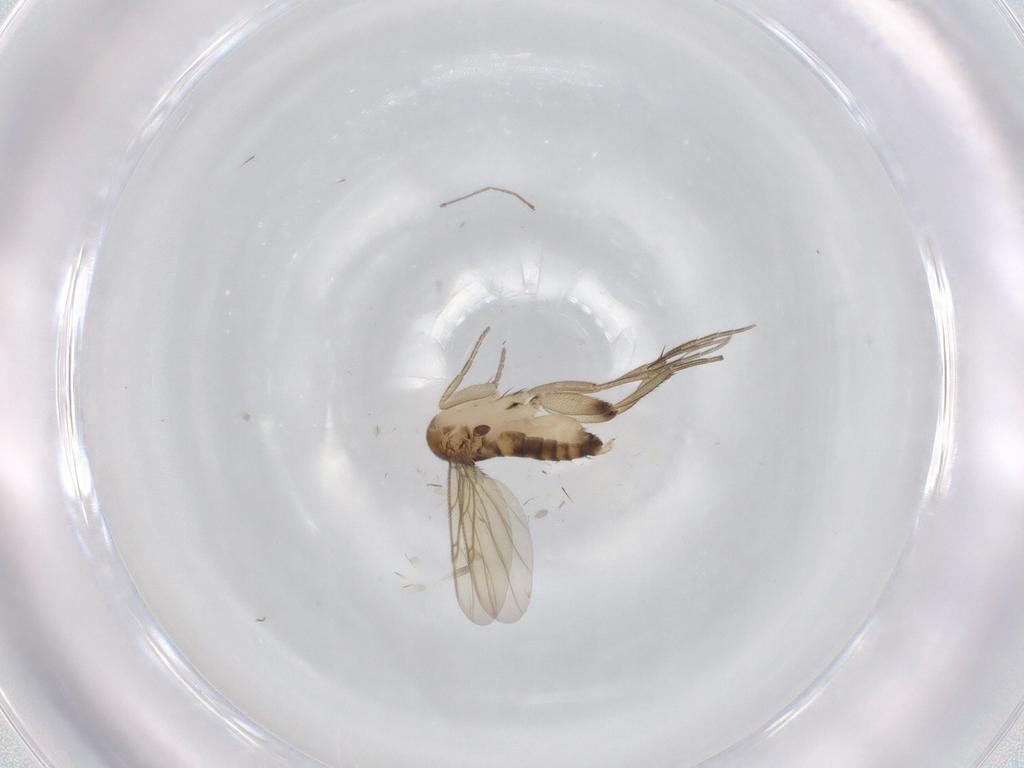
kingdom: Animalia
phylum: Arthropoda
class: Insecta
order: Diptera
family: Phoridae
